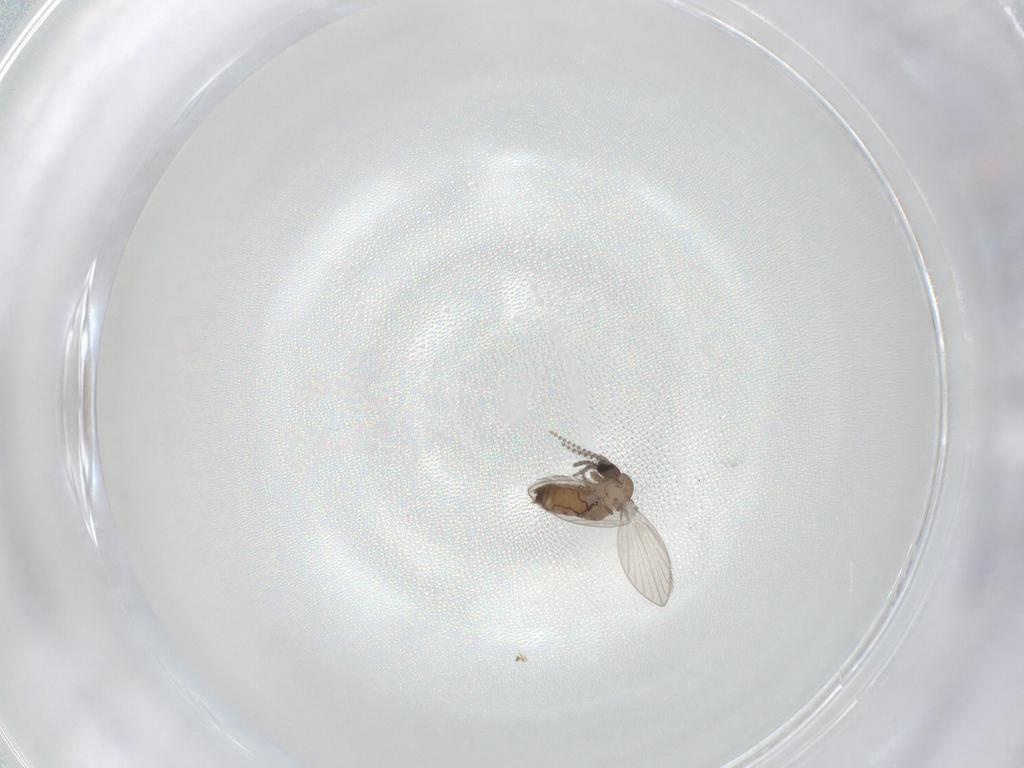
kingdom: Animalia
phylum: Arthropoda
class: Insecta
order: Diptera
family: Psychodidae
